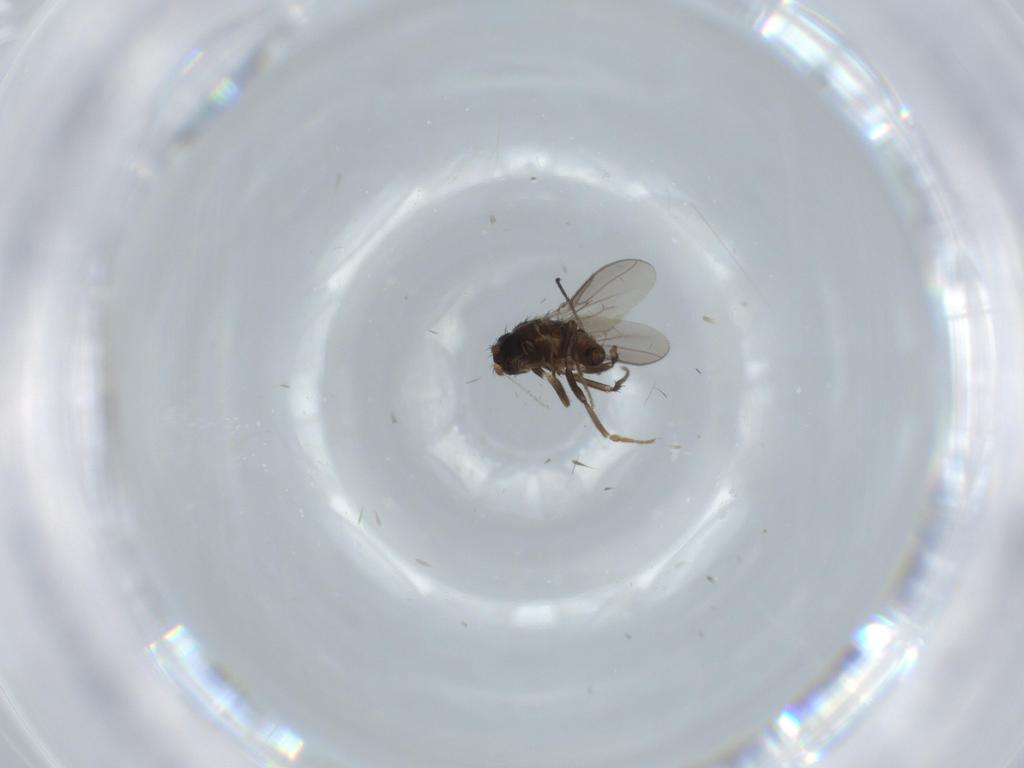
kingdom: Animalia
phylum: Arthropoda
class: Insecta
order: Diptera
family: Sphaeroceridae
